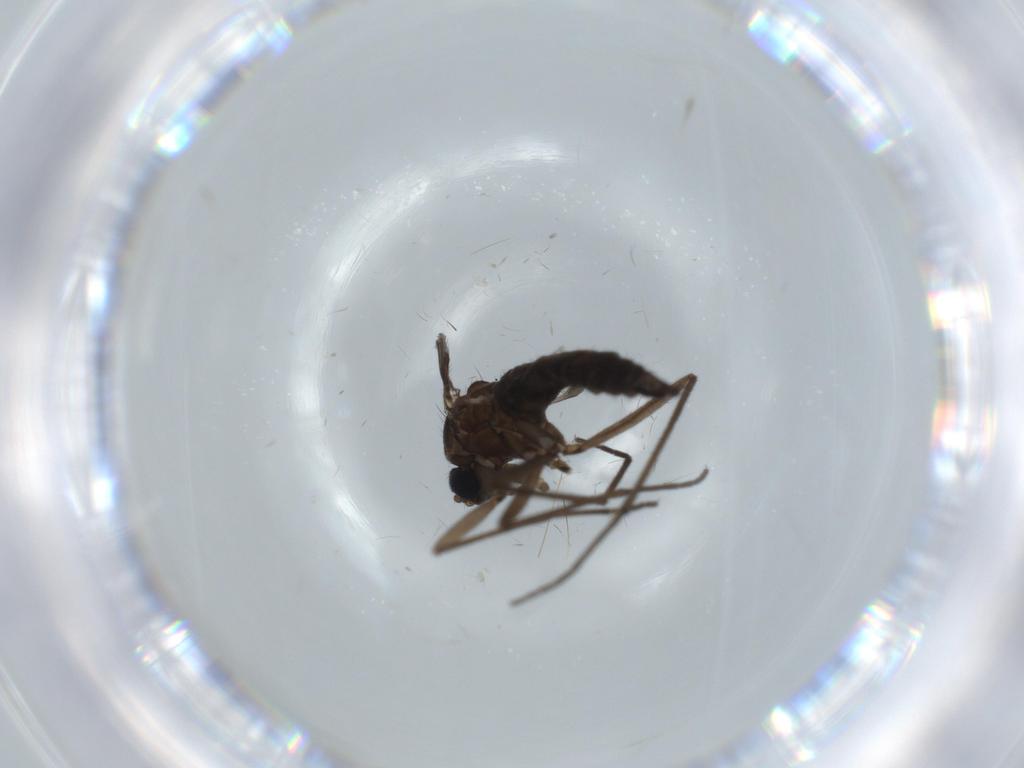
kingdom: Animalia
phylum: Arthropoda
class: Insecta
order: Diptera
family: Sciaridae
